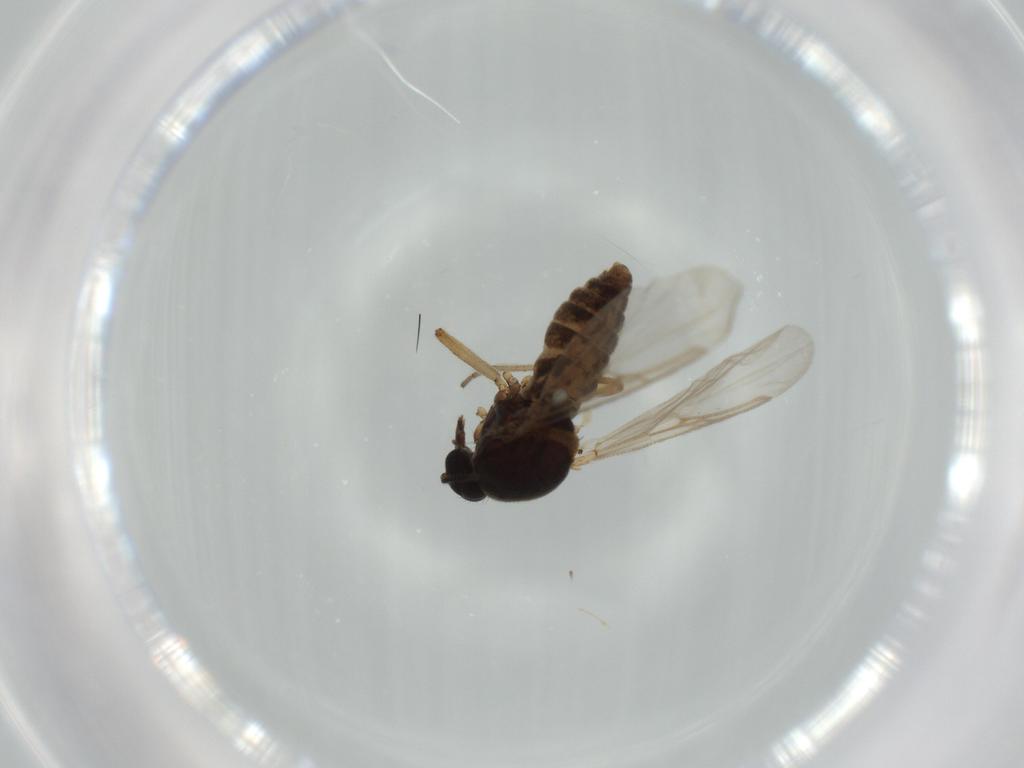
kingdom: Animalia
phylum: Arthropoda
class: Insecta
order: Diptera
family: Ceratopogonidae
